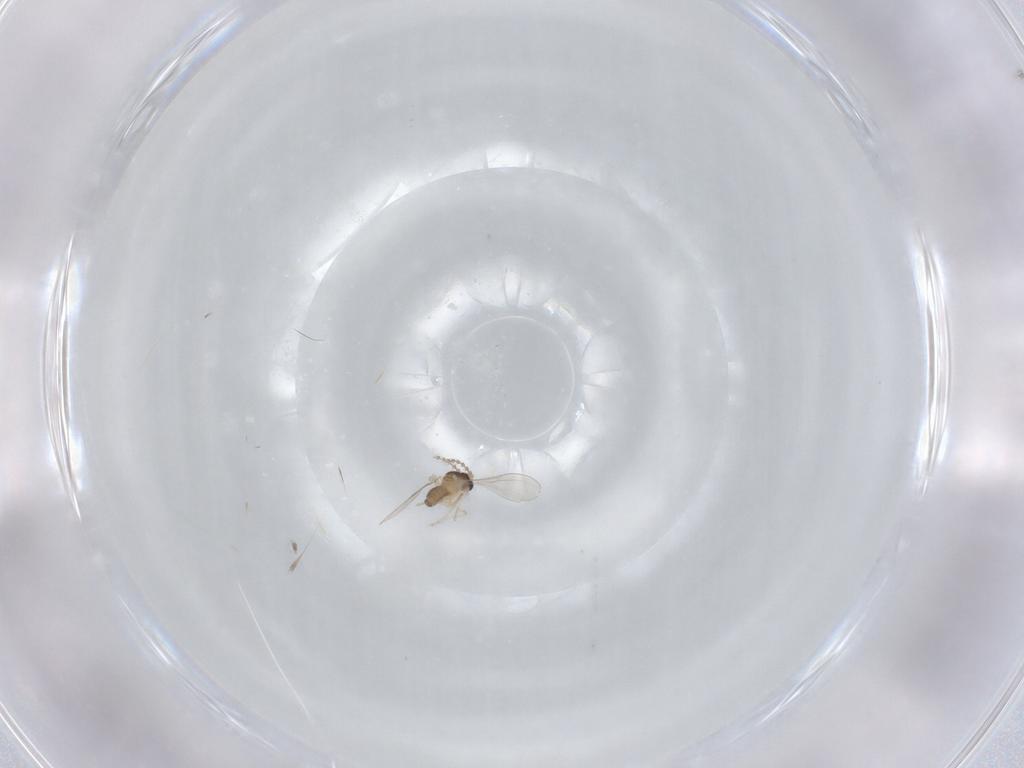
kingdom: Animalia
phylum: Arthropoda
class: Insecta
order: Diptera
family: Cecidomyiidae
